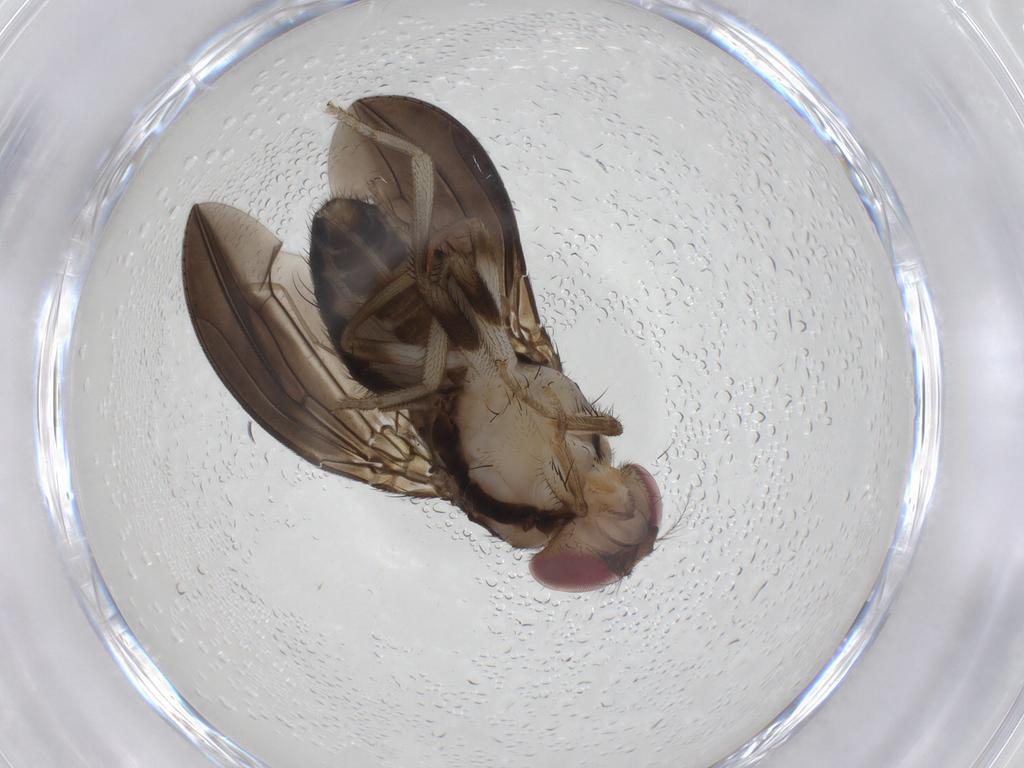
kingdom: Animalia
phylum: Arthropoda
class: Insecta
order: Diptera
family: Drosophilidae
